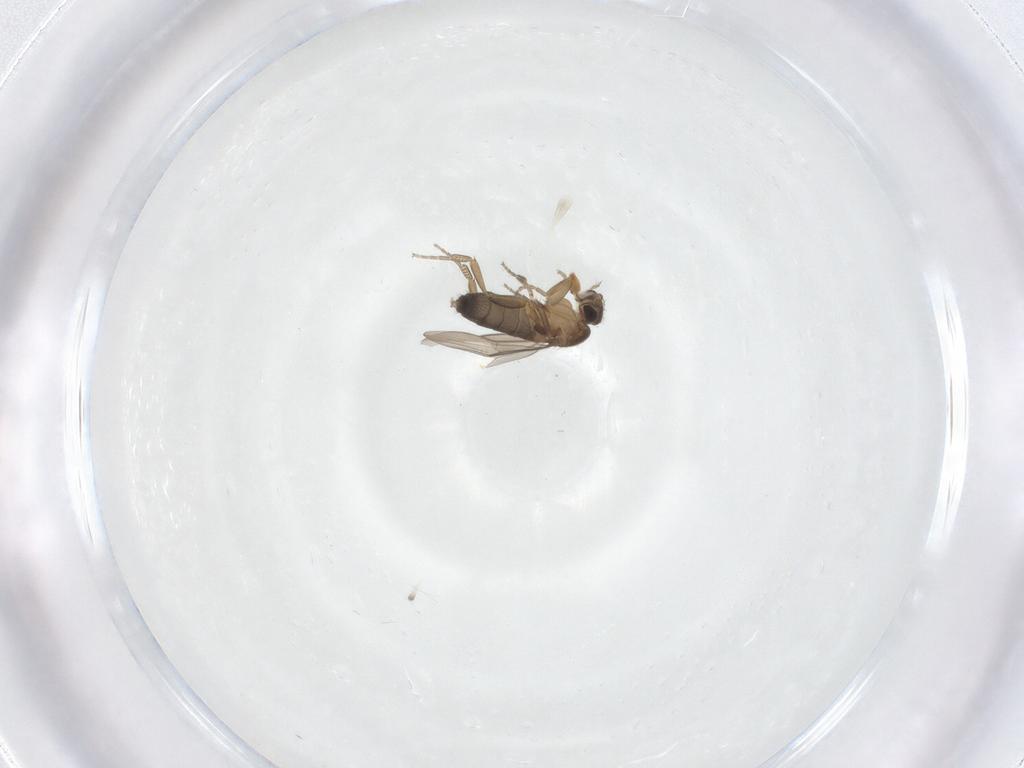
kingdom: Animalia
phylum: Arthropoda
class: Insecta
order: Diptera
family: Phoridae
